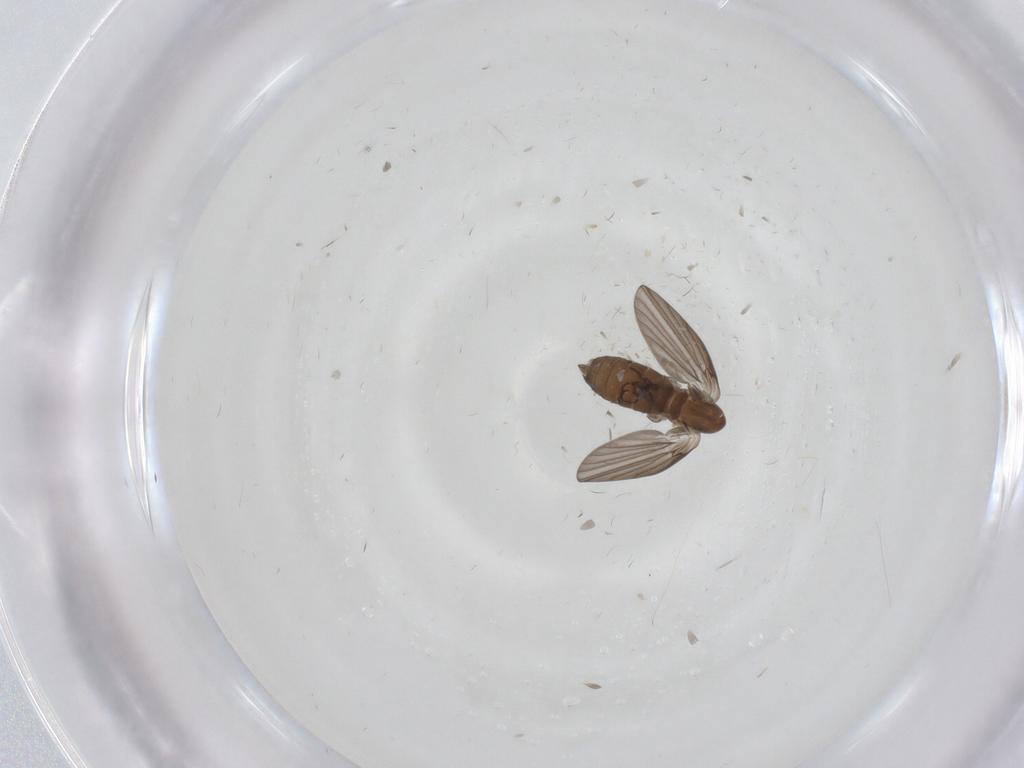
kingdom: Animalia
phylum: Arthropoda
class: Insecta
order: Diptera
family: Psychodidae
